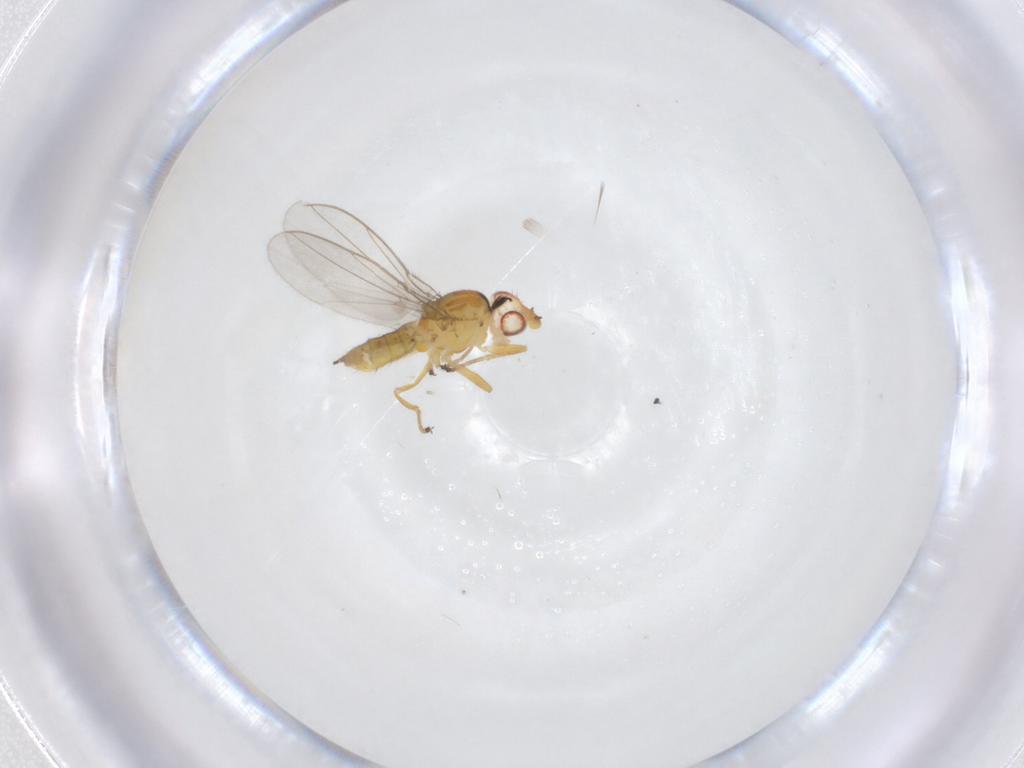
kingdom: Animalia
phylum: Arthropoda
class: Insecta
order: Diptera
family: Chloropidae
